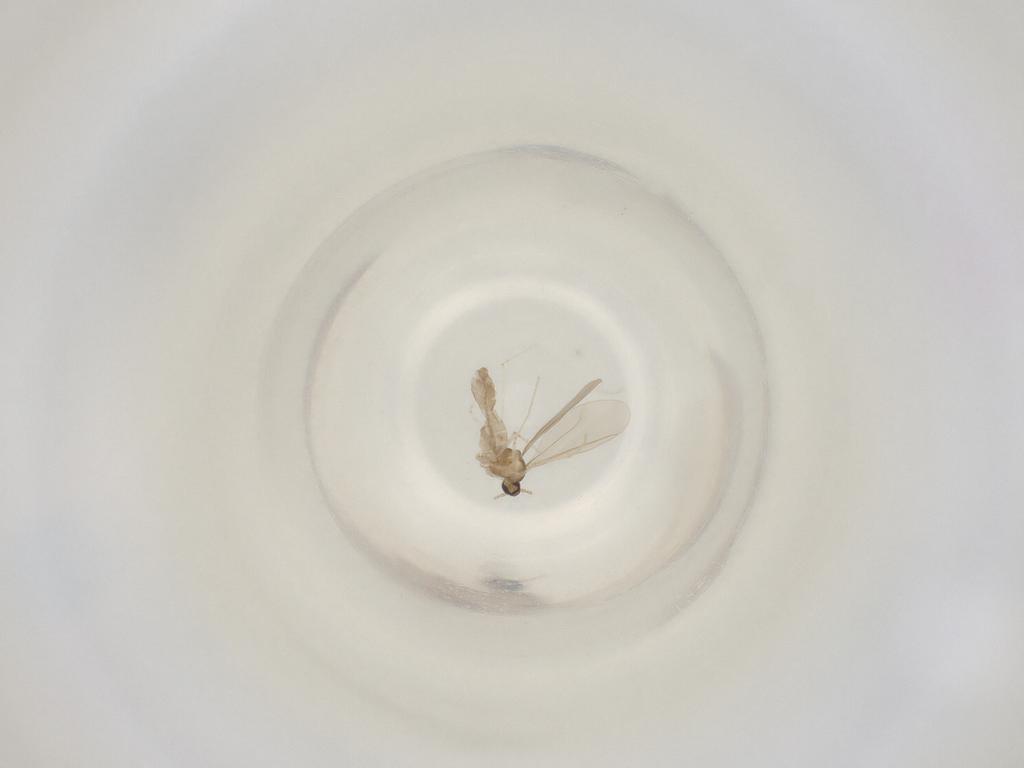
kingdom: Animalia
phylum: Arthropoda
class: Insecta
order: Diptera
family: Cecidomyiidae
